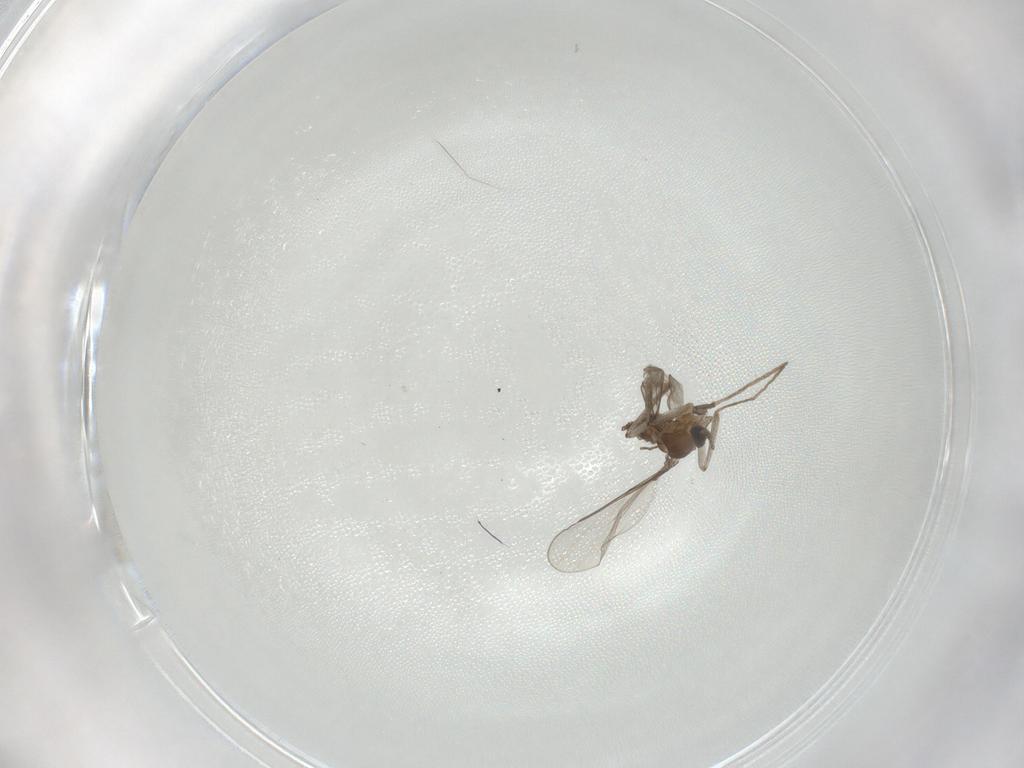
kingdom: Animalia
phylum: Arthropoda
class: Insecta
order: Diptera
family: Cecidomyiidae
